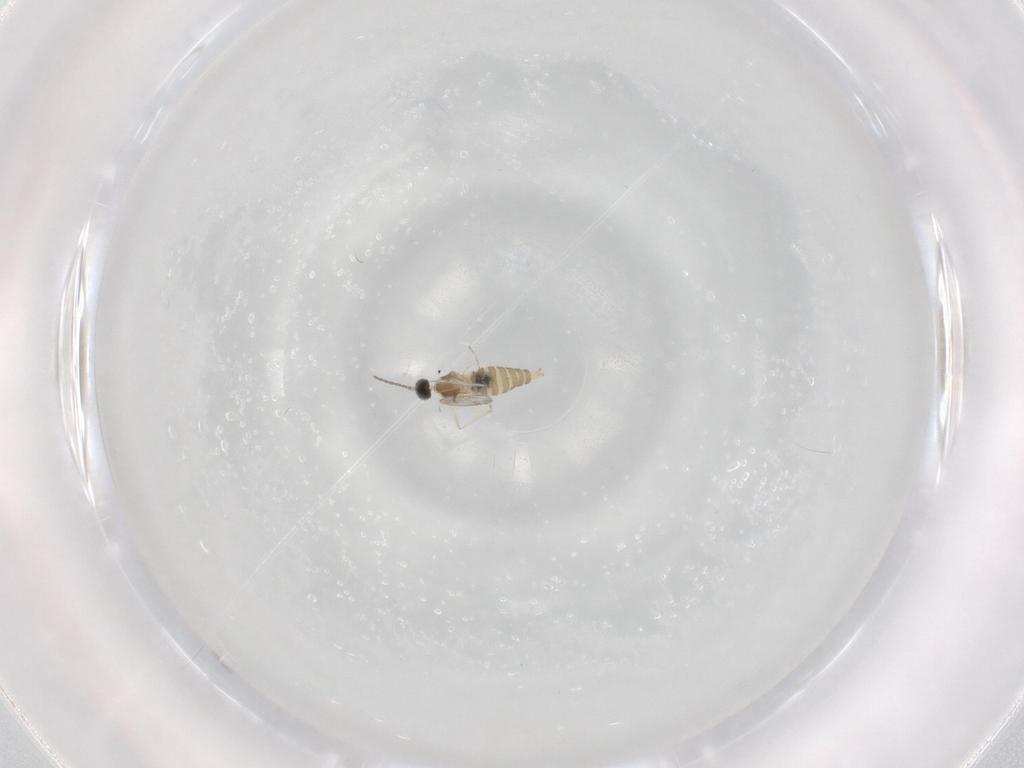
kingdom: Animalia
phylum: Arthropoda
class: Insecta
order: Diptera
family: Cecidomyiidae
